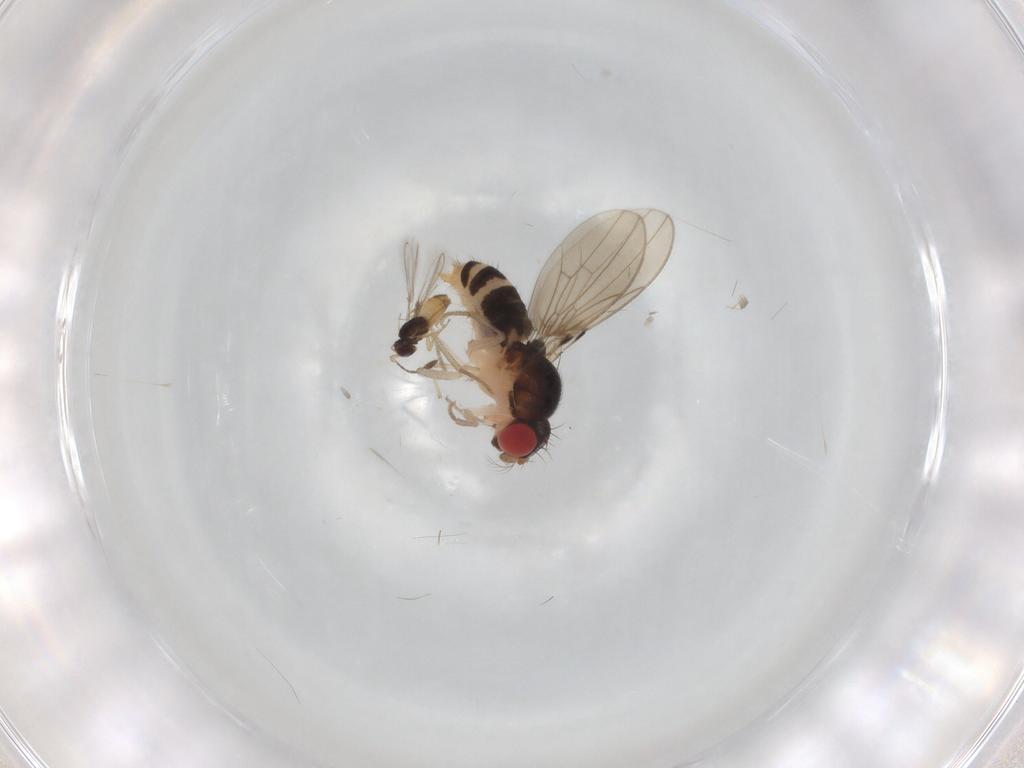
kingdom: Animalia
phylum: Arthropoda
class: Insecta
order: Diptera
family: Drosophilidae
